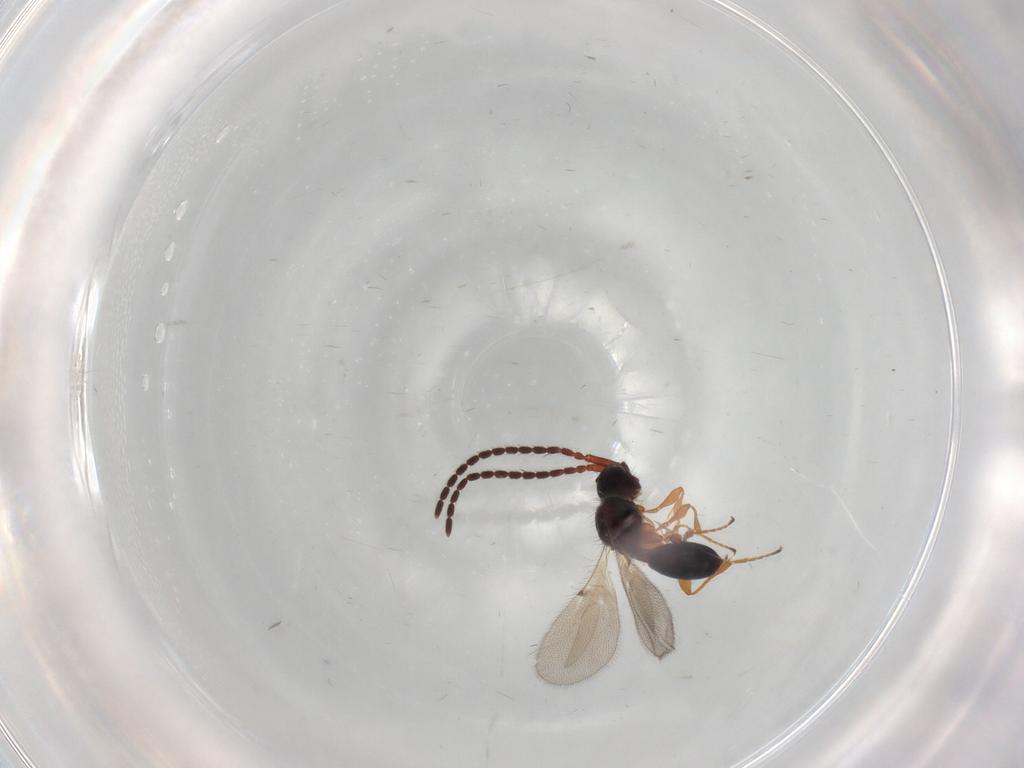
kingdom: Animalia
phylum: Arthropoda
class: Insecta
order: Hymenoptera
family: Diapriidae
